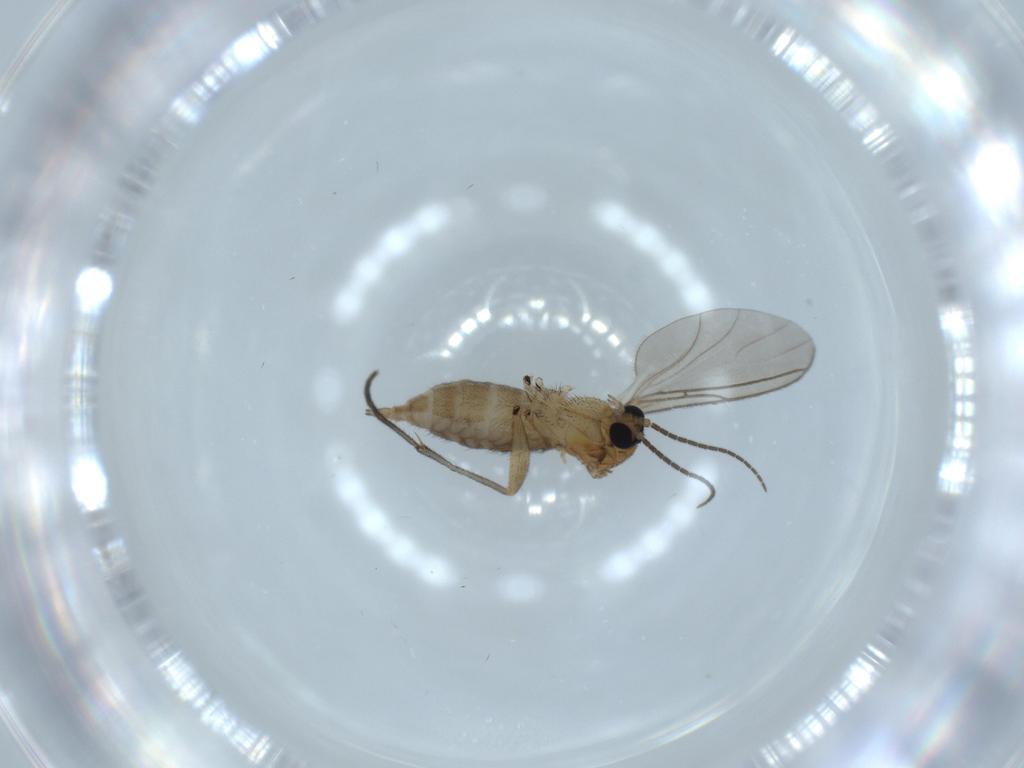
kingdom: Animalia
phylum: Arthropoda
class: Insecta
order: Diptera
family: Sciaridae
